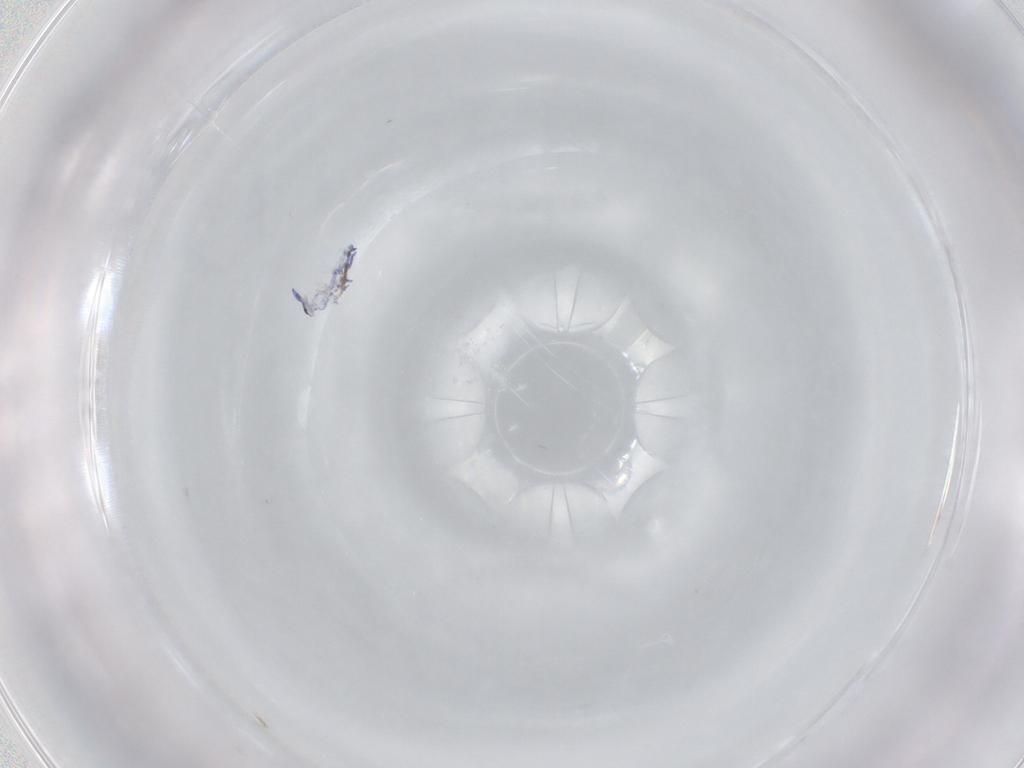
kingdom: Animalia
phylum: Arthropoda
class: Collembola
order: Entomobryomorpha
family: Entomobryidae
